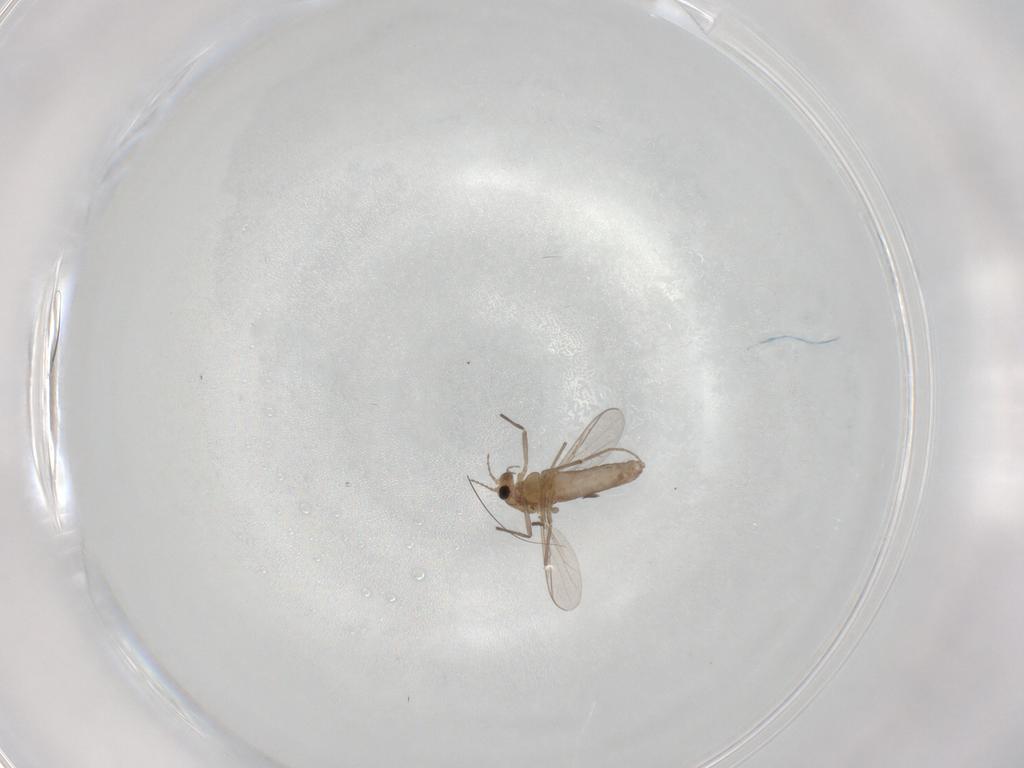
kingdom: Animalia
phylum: Arthropoda
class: Insecta
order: Diptera
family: Chironomidae
